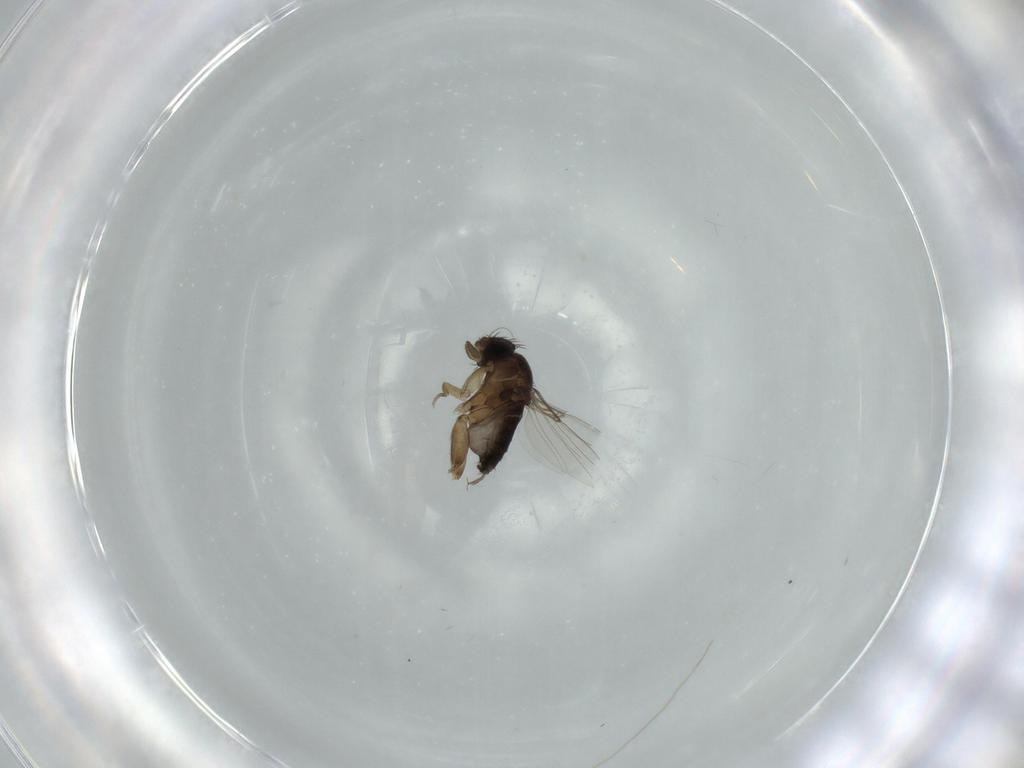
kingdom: Animalia
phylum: Arthropoda
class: Insecta
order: Diptera
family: Phoridae
